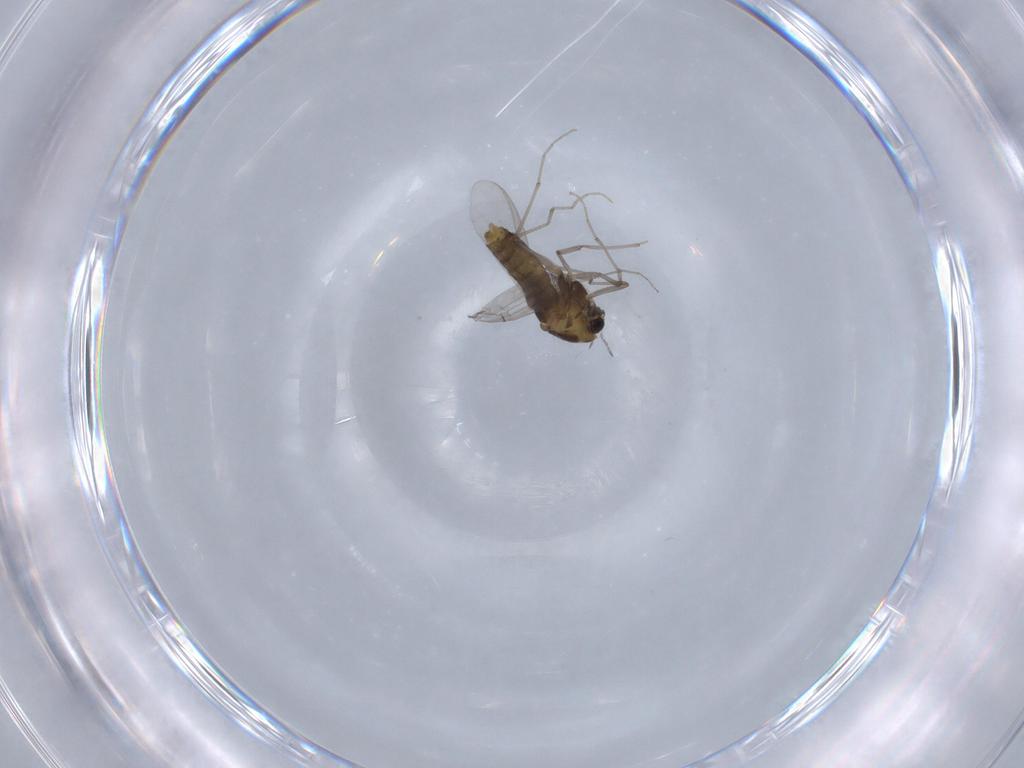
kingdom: Animalia
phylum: Arthropoda
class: Insecta
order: Diptera
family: Chironomidae
